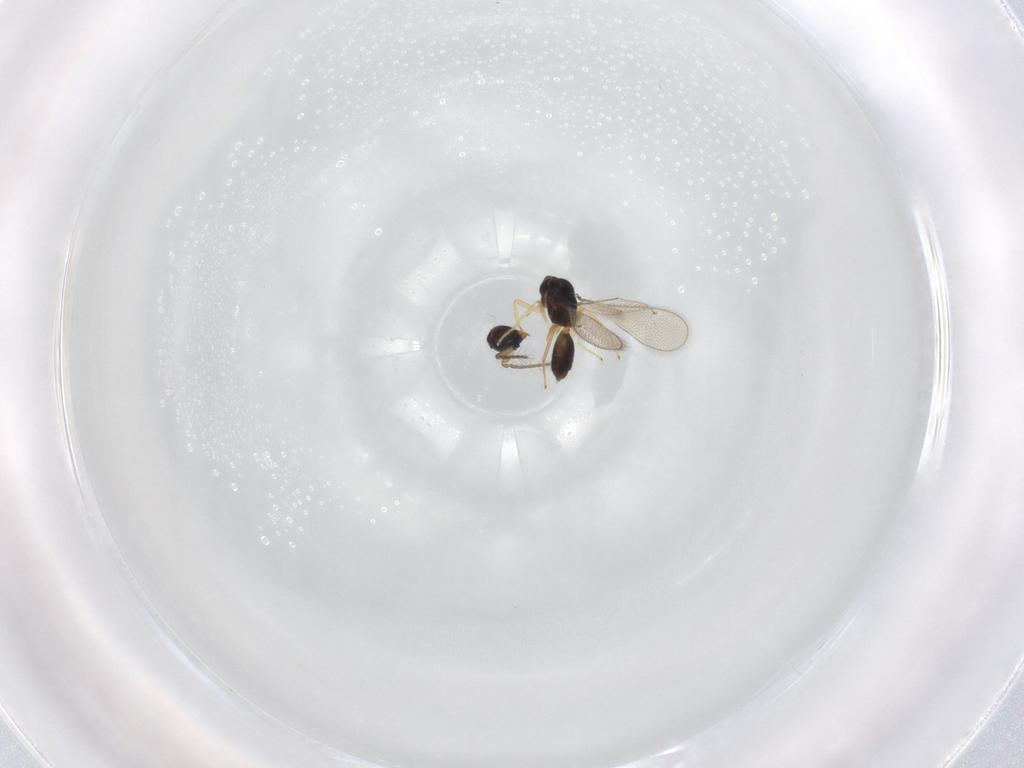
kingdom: Animalia
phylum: Arthropoda
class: Insecta
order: Hymenoptera
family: Eulophidae
